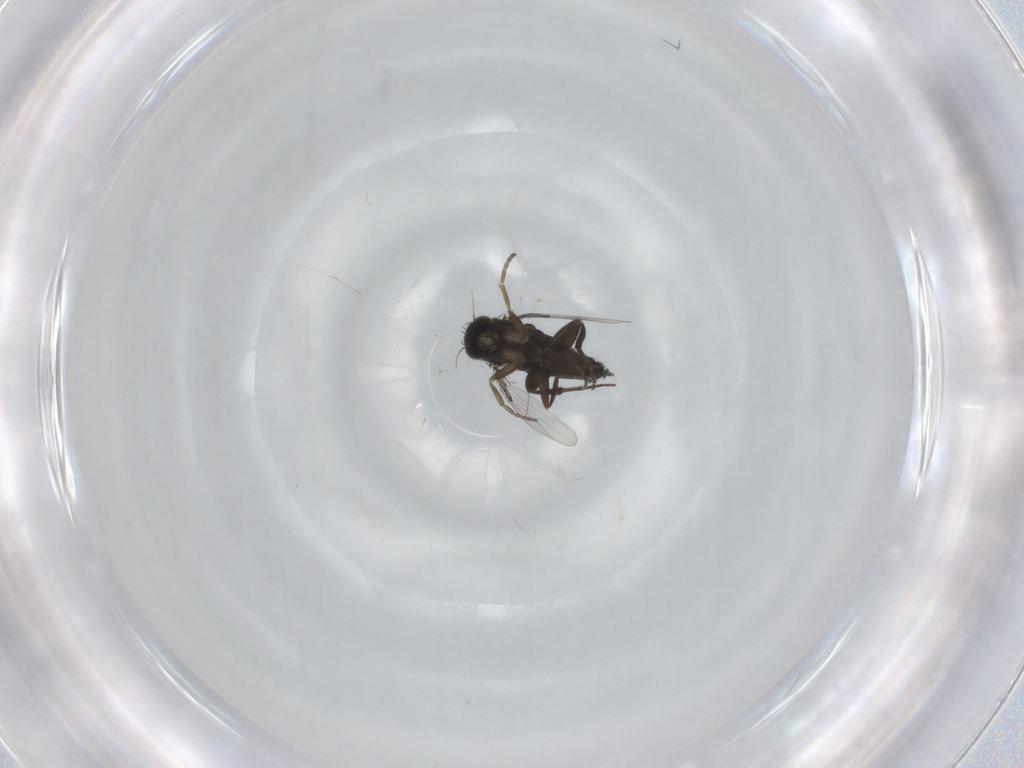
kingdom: Animalia
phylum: Arthropoda
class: Insecta
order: Diptera
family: Phoridae
